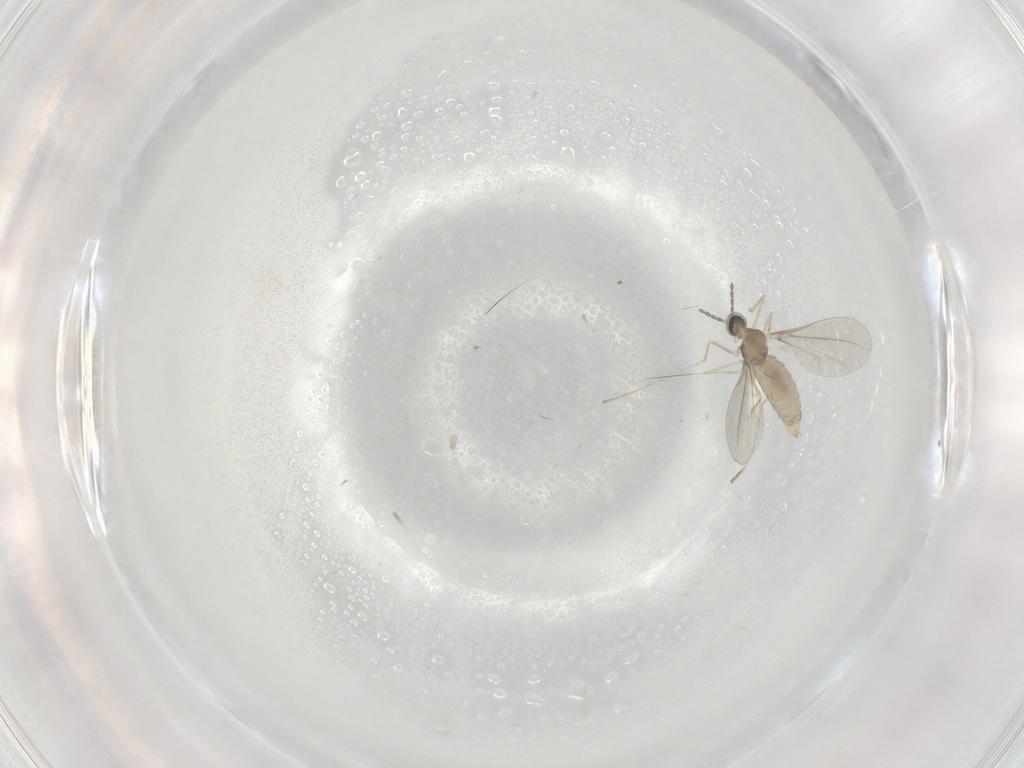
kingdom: Animalia
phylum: Arthropoda
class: Insecta
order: Diptera
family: Cecidomyiidae
